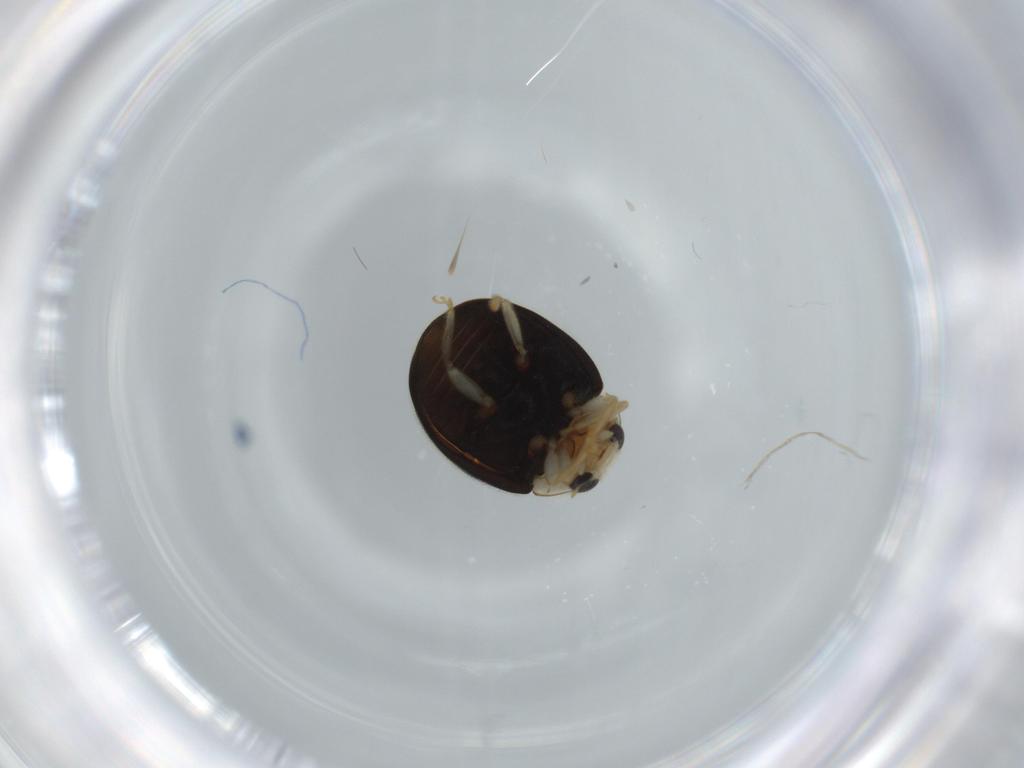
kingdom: Animalia
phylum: Arthropoda
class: Insecta
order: Coleoptera
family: Coccinellidae
